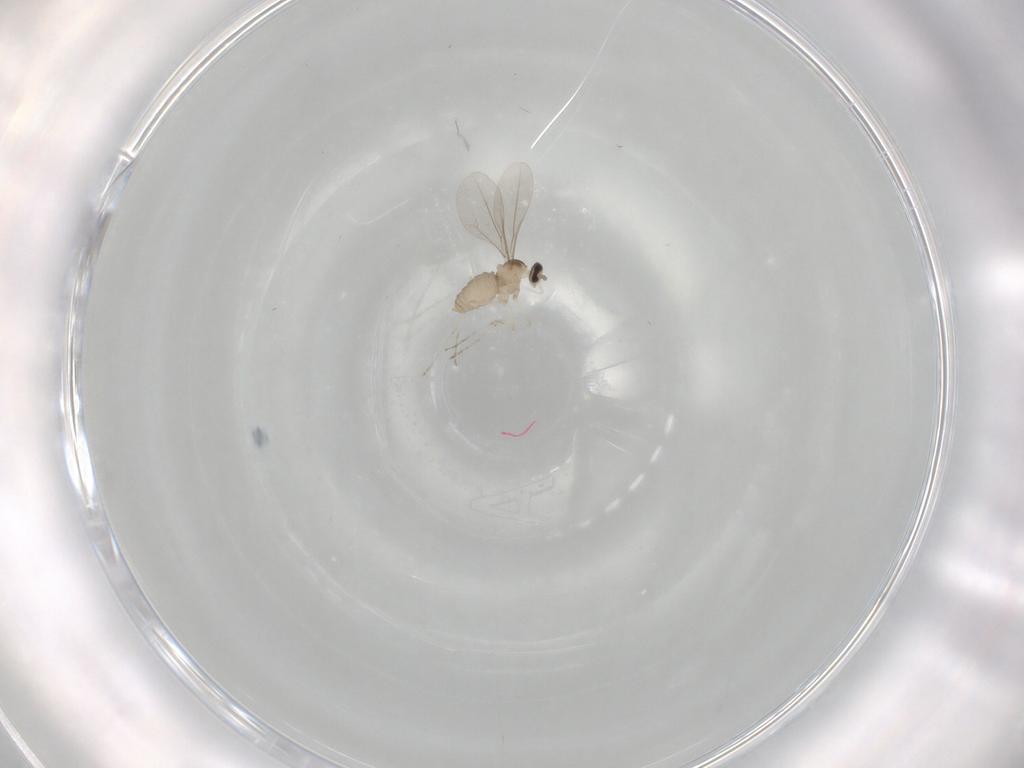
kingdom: Animalia
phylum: Arthropoda
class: Insecta
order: Diptera
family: Cecidomyiidae
